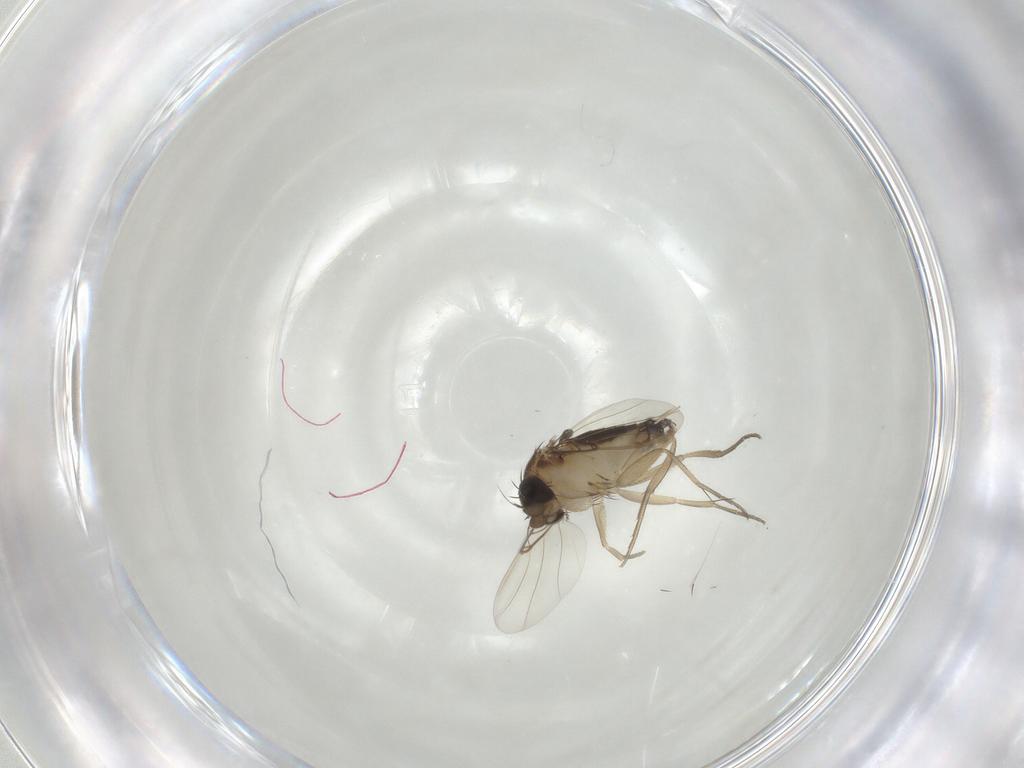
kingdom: Animalia
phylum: Arthropoda
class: Insecta
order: Diptera
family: Phoridae
